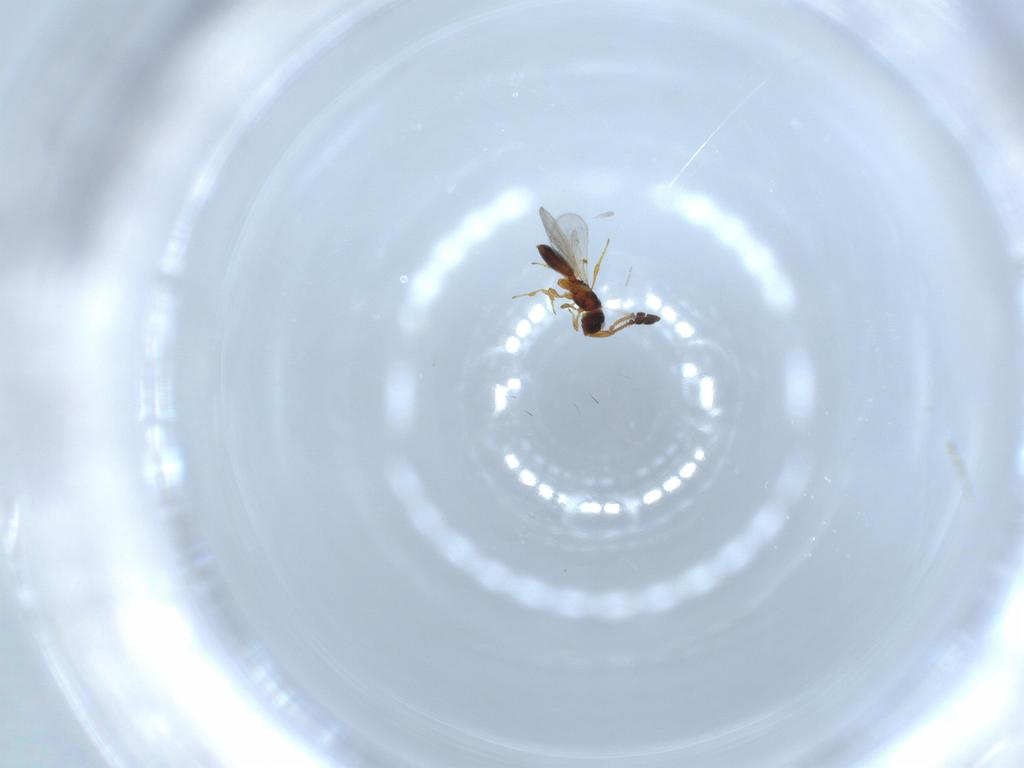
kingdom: Animalia
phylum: Arthropoda
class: Insecta
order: Hymenoptera
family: Diapriidae
